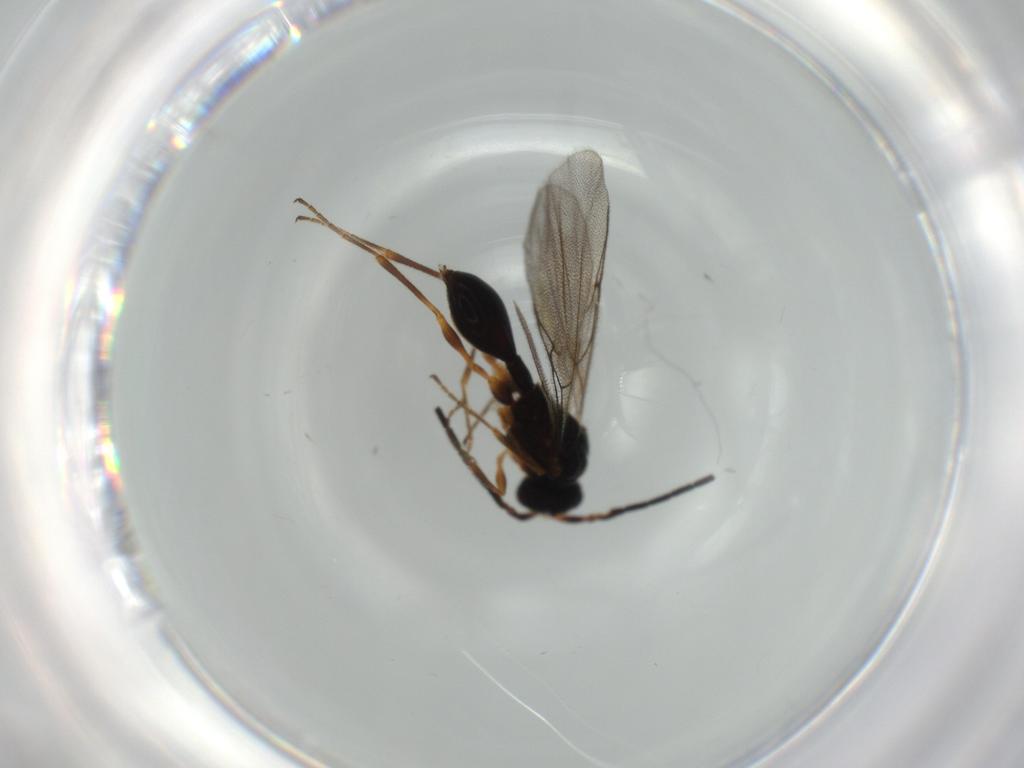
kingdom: Animalia
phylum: Arthropoda
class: Insecta
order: Hymenoptera
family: Diapriidae
